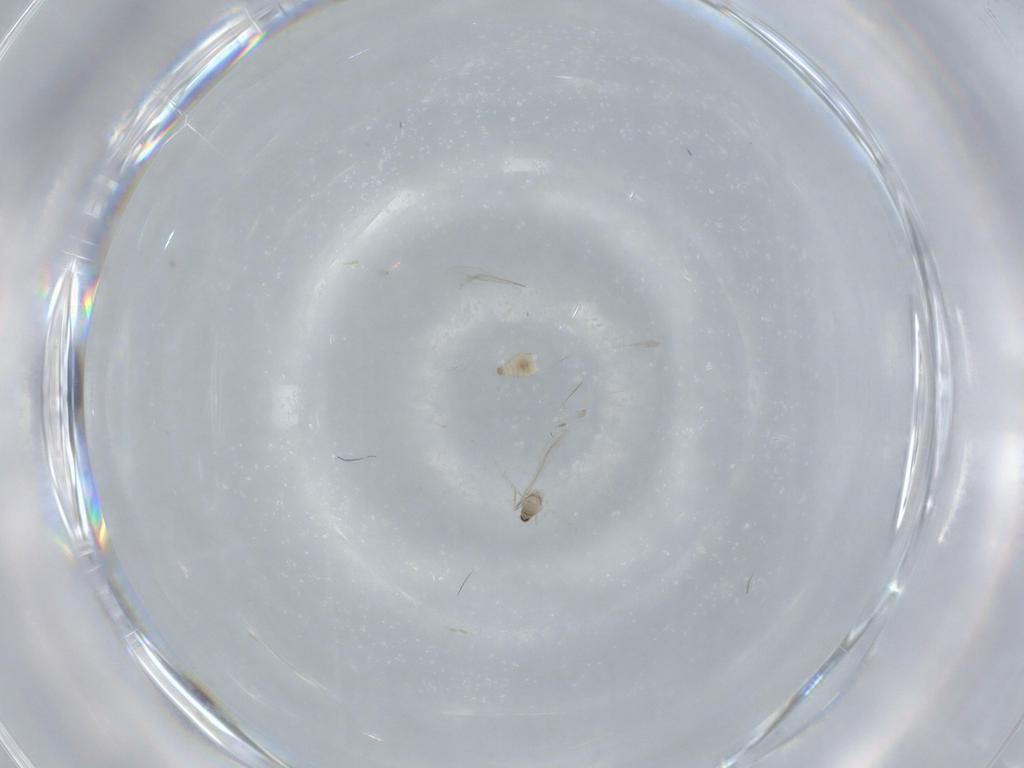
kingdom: Animalia
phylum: Arthropoda
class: Insecta
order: Diptera
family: Cecidomyiidae
